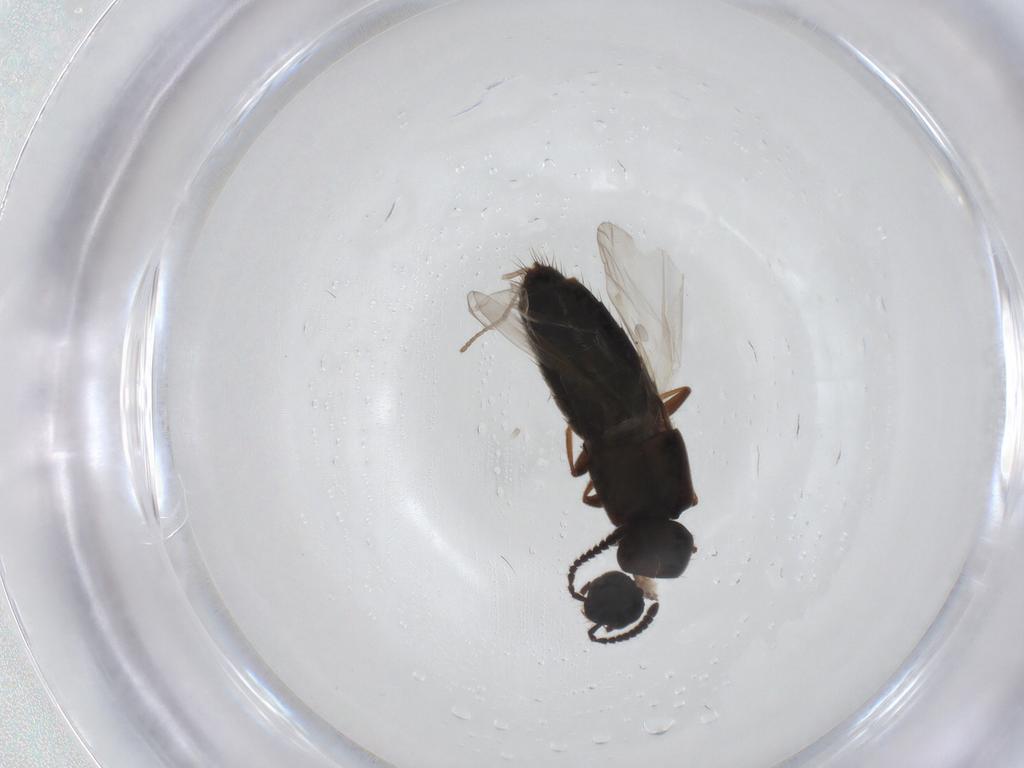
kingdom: Animalia
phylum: Arthropoda
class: Insecta
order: Coleoptera
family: Staphylinidae
